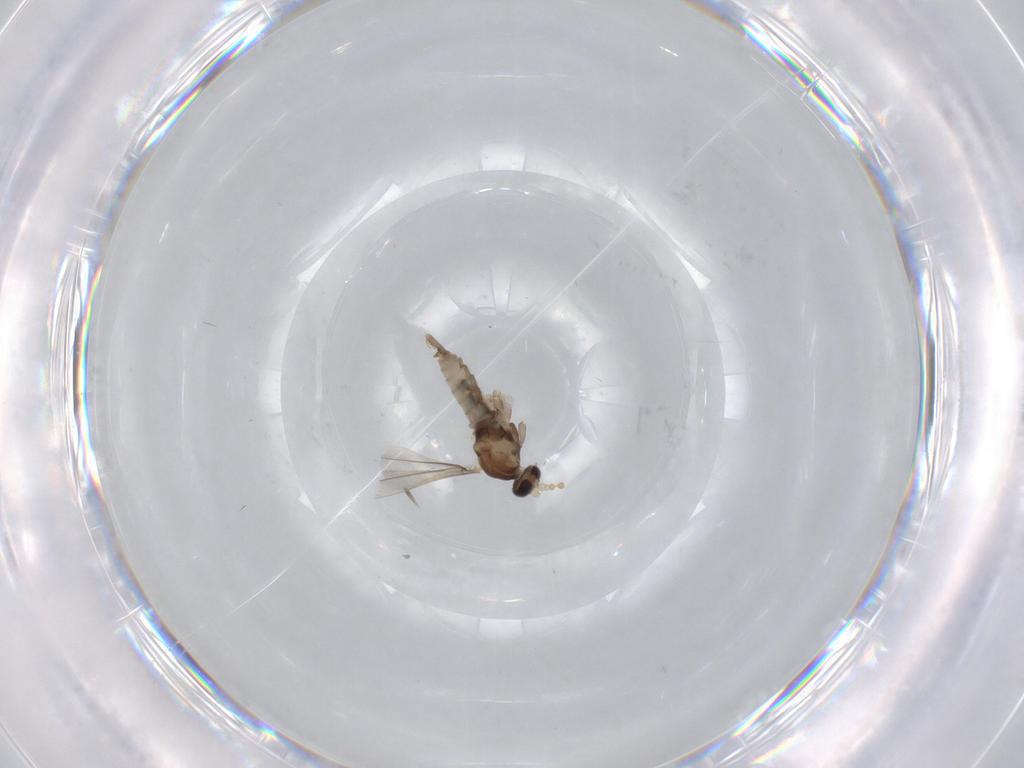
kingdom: Animalia
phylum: Arthropoda
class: Insecta
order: Diptera
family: Cecidomyiidae
